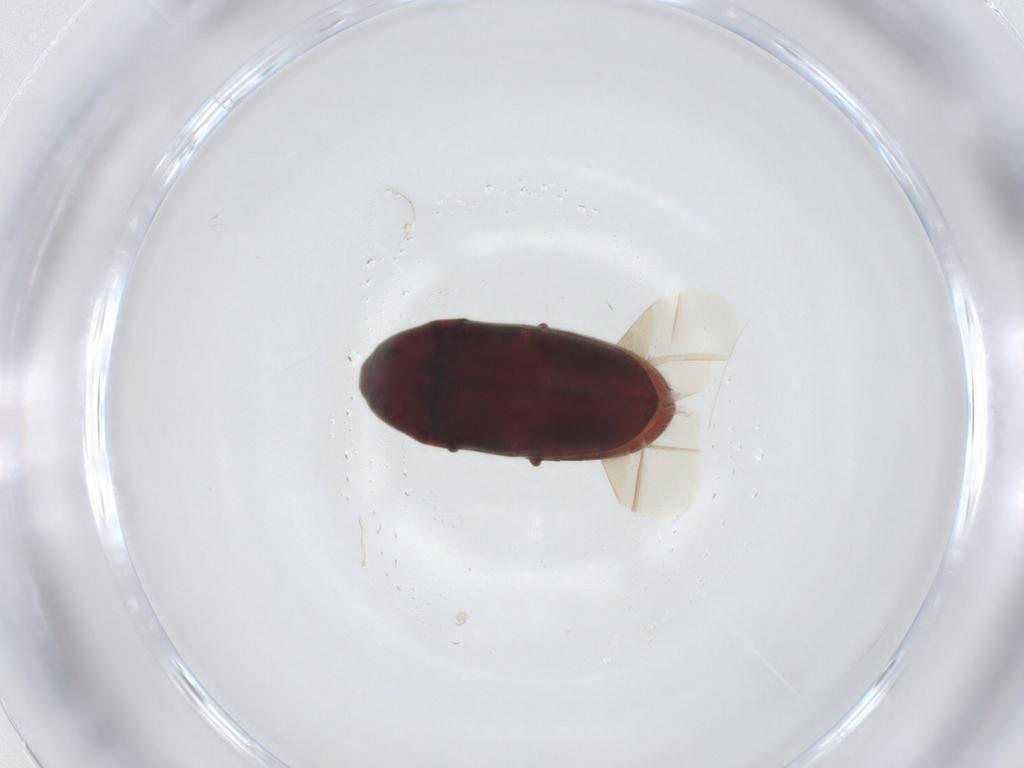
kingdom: Animalia
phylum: Arthropoda
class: Insecta
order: Coleoptera
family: Throscidae
